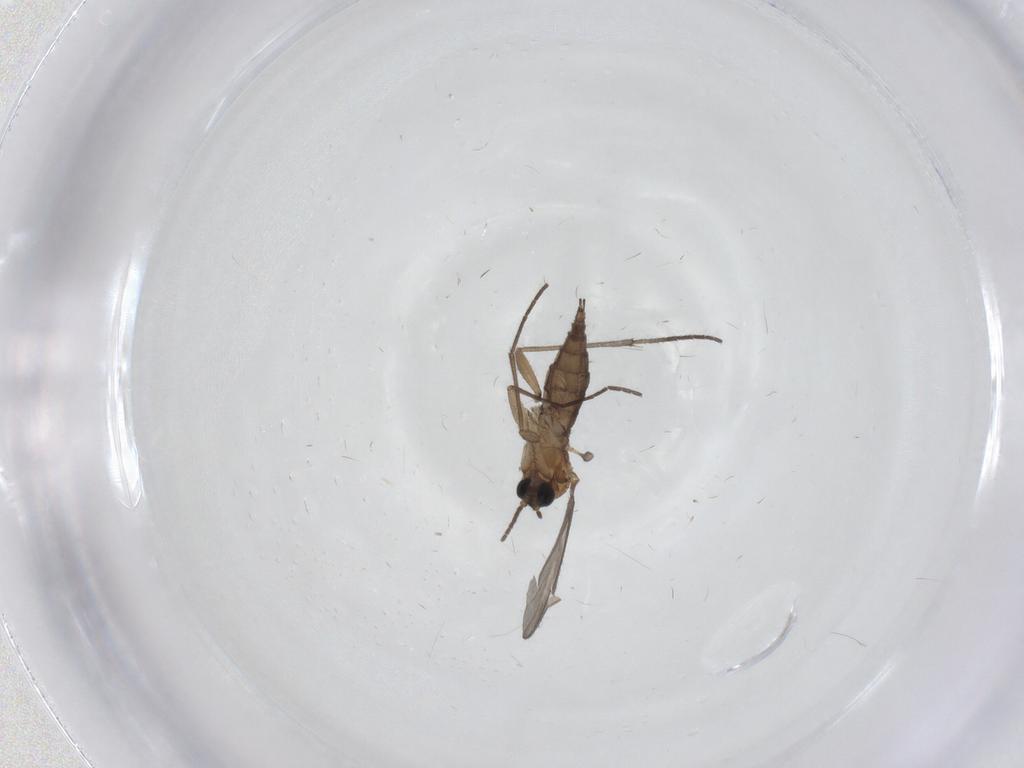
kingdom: Animalia
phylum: Arthropoda
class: Insecta
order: Diptera
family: Sciaridae
